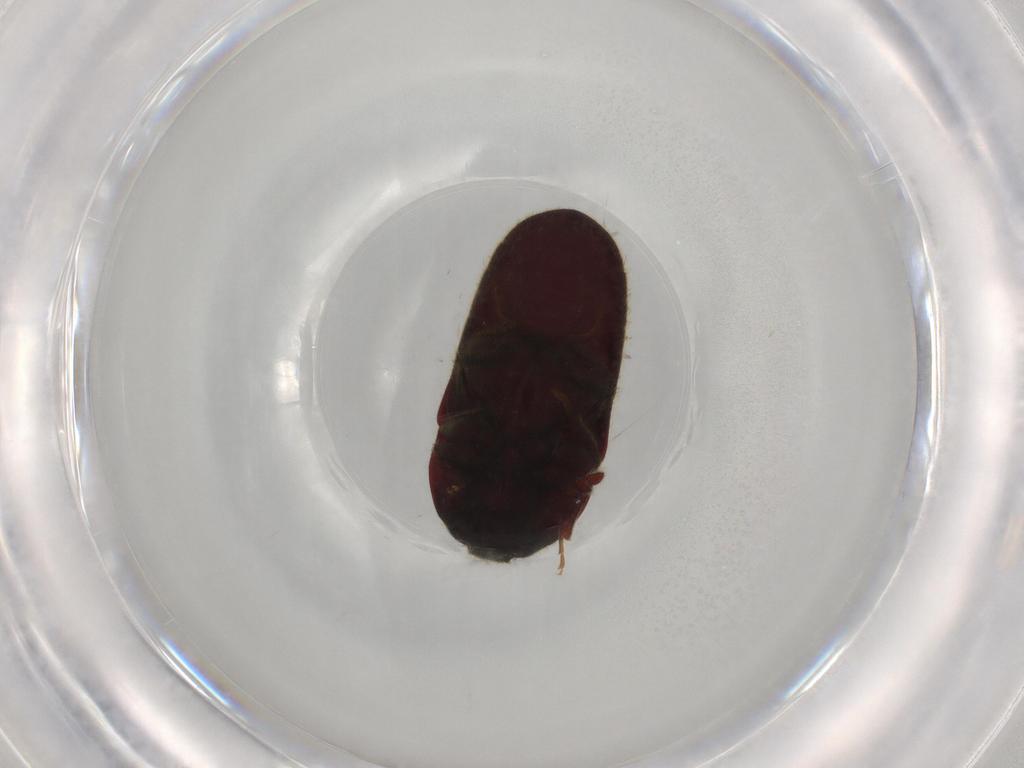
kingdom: Animalia
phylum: Arthropoda
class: Insecta
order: Coleoptera
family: Throscidae
